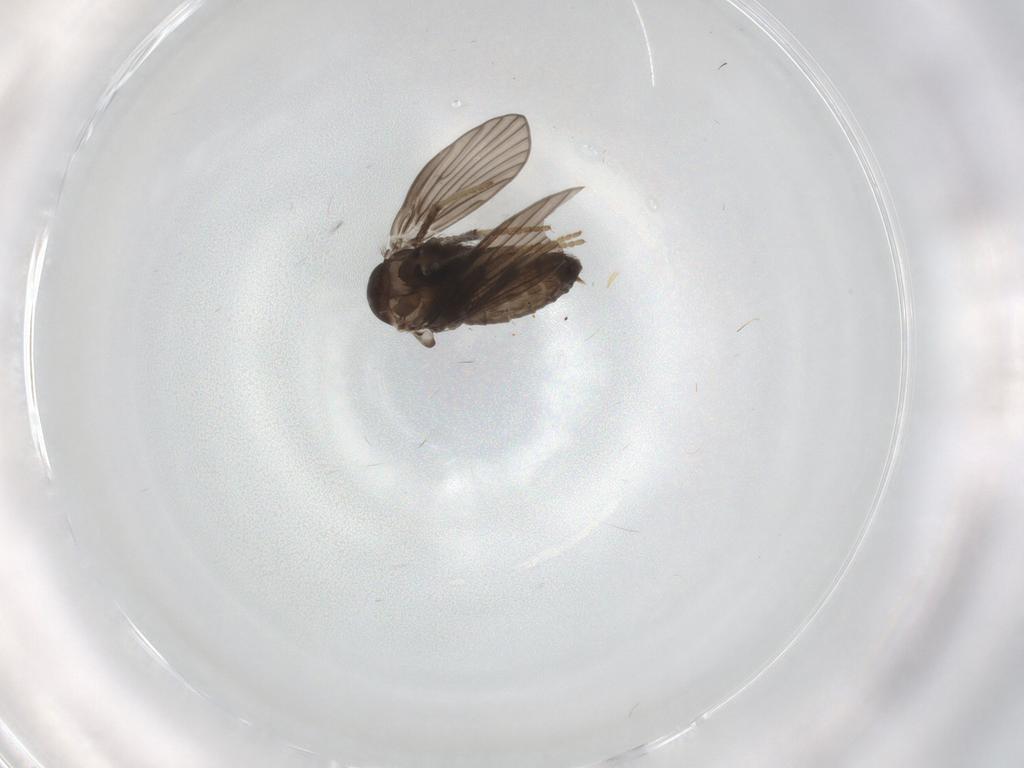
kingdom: Animalia
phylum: Arthropoda
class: Insecta
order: Diptera
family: Psychodidae
